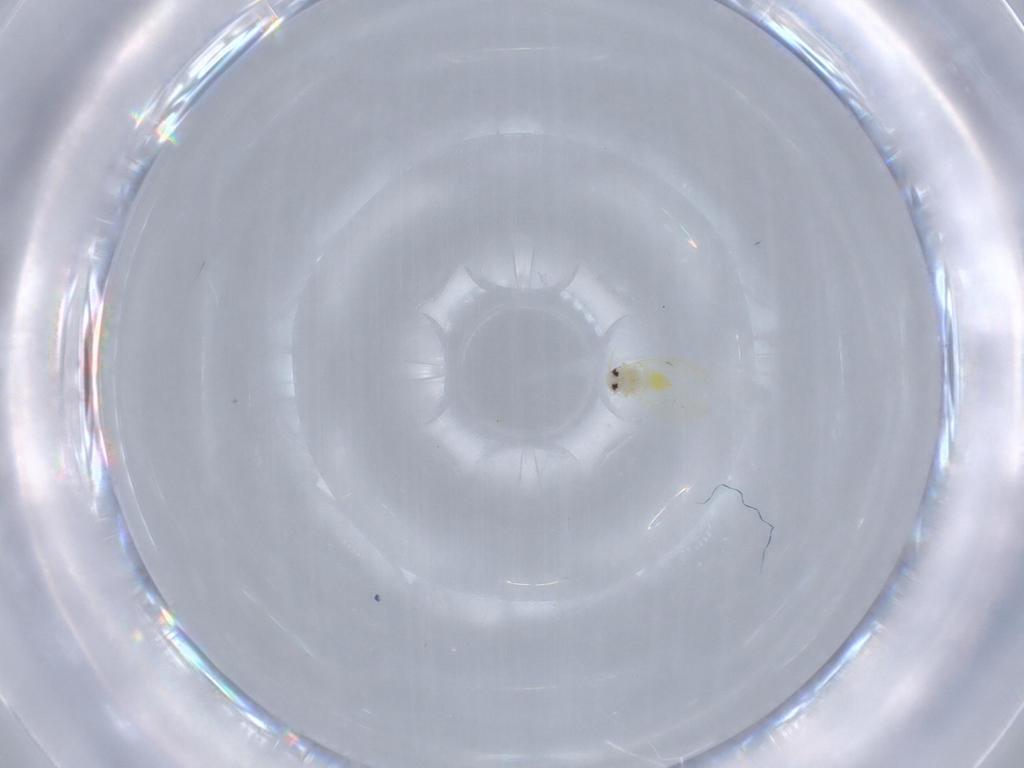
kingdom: Animalia
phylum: Arthropoda
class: Insecta
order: Hemiptera
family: Aleyrodidae
